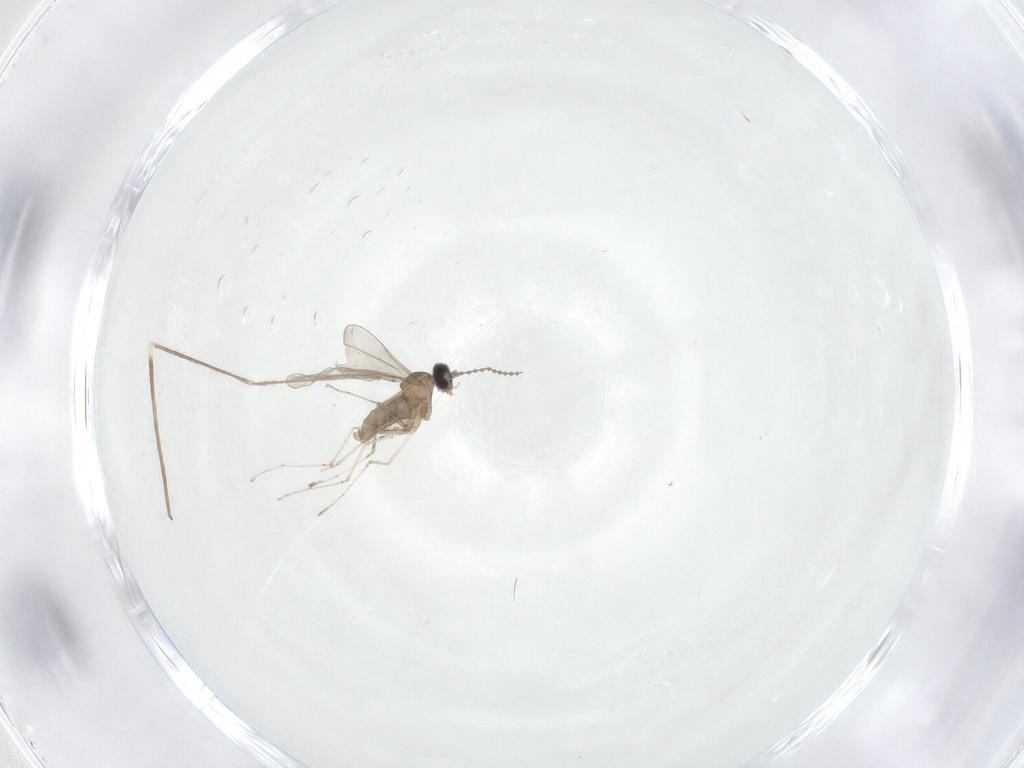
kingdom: Animalia
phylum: Arthropoda
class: Insecta
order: Diptera
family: Cecidomyiidae
